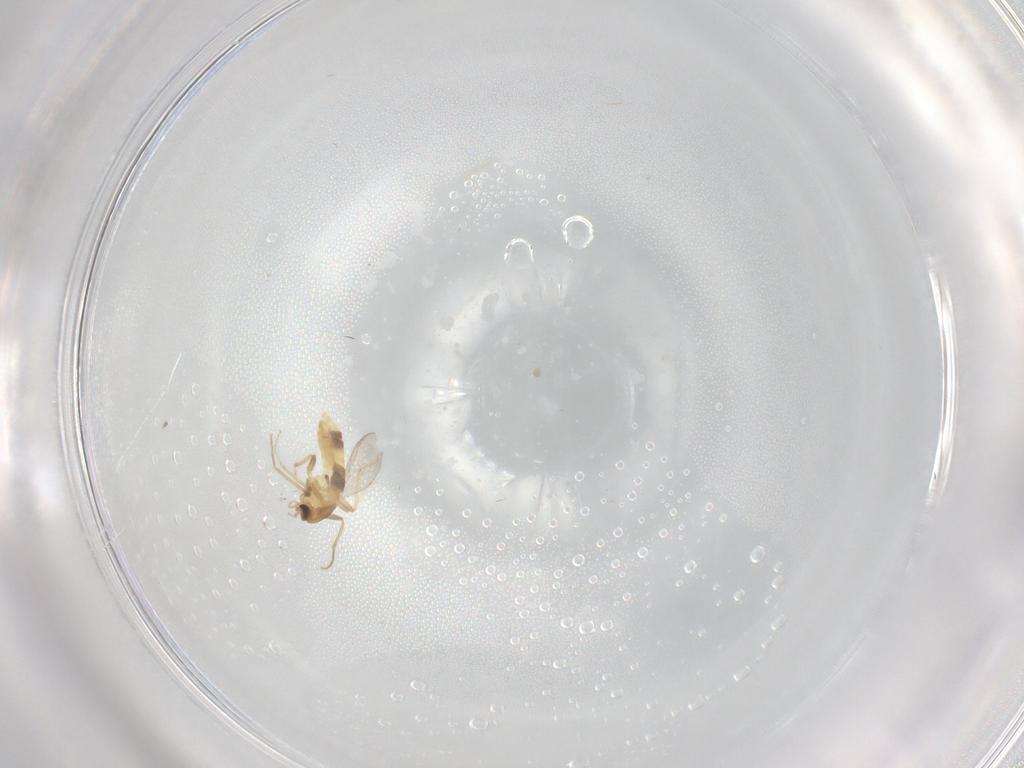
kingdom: Animalia
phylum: Arthropoda
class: Insecta
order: Diptera
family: Chironomidae
